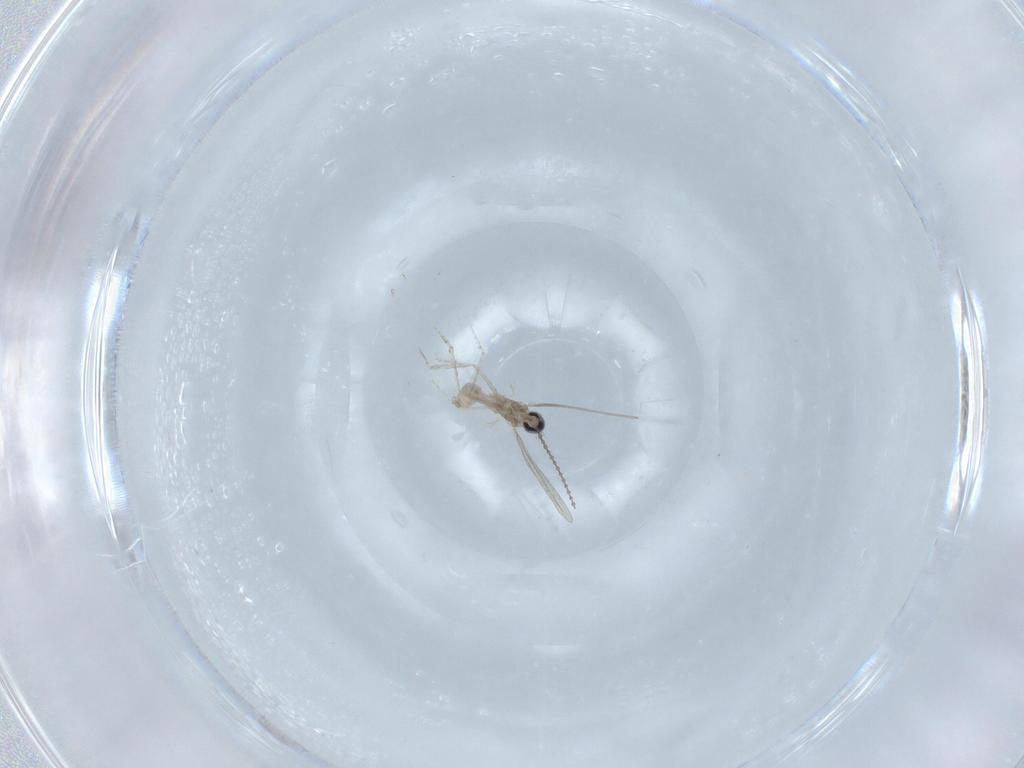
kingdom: Animalia
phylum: Arthropoda
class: Insecta
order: Diptera
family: Cecidomyiidae
